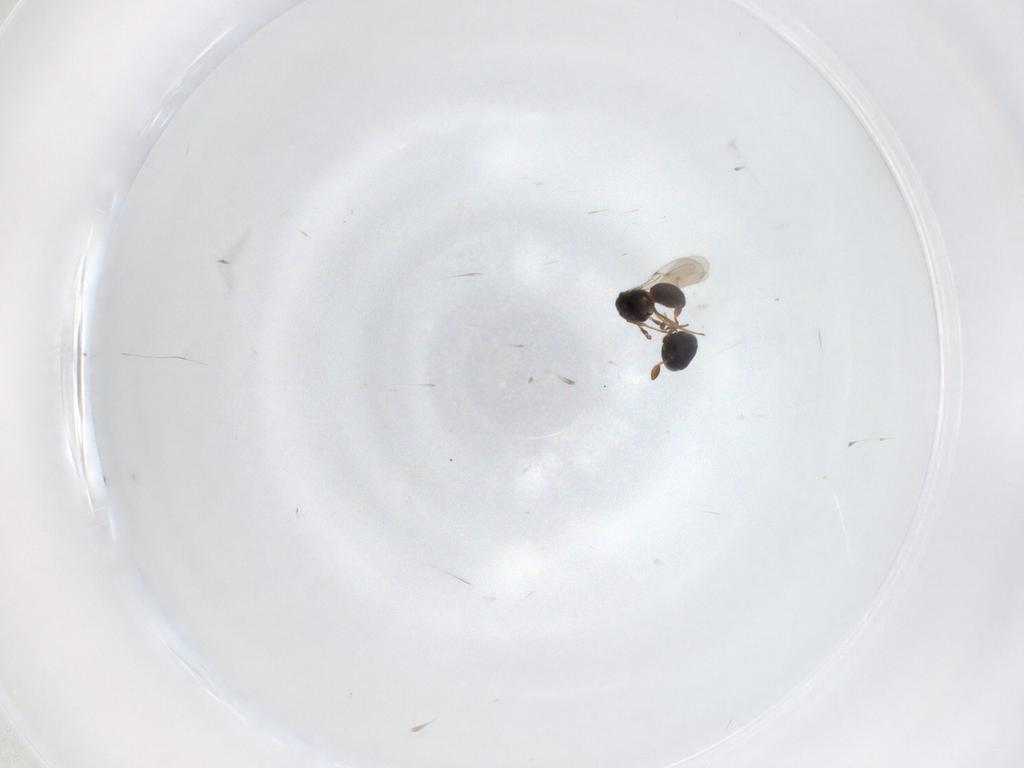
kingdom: Animalia
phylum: Arthropoda
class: Insecta
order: Hymenoptera
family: Scelionidae
